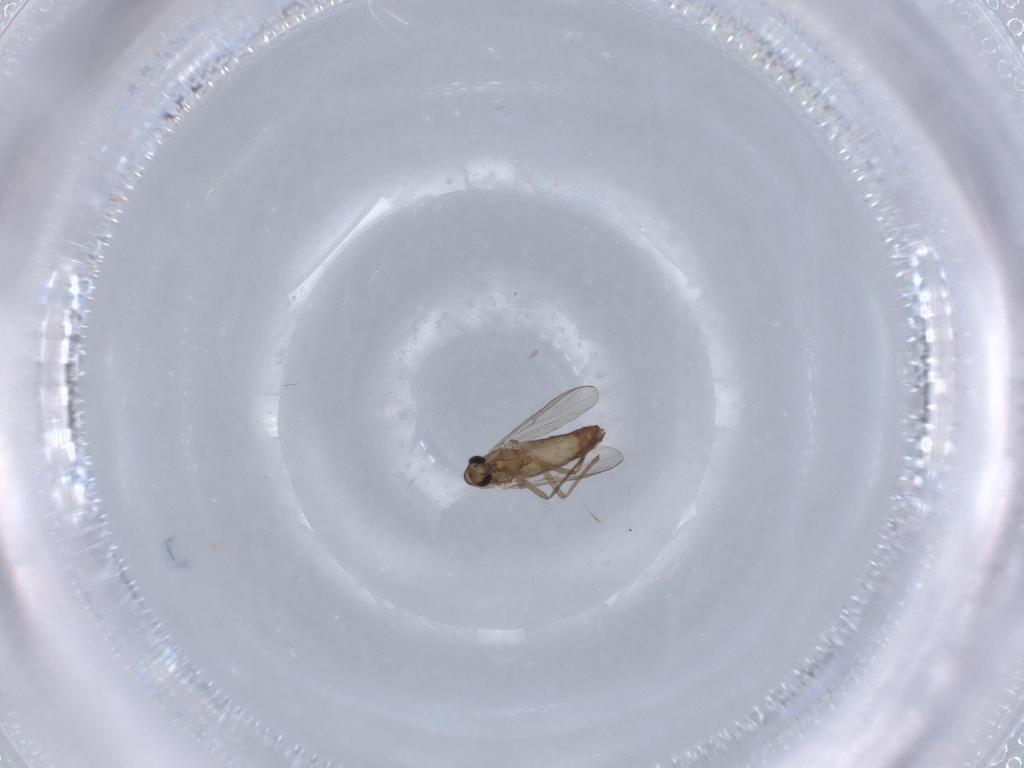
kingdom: Animalia
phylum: Arthropoda
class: Insecta
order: Diptera
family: Chironomidae
